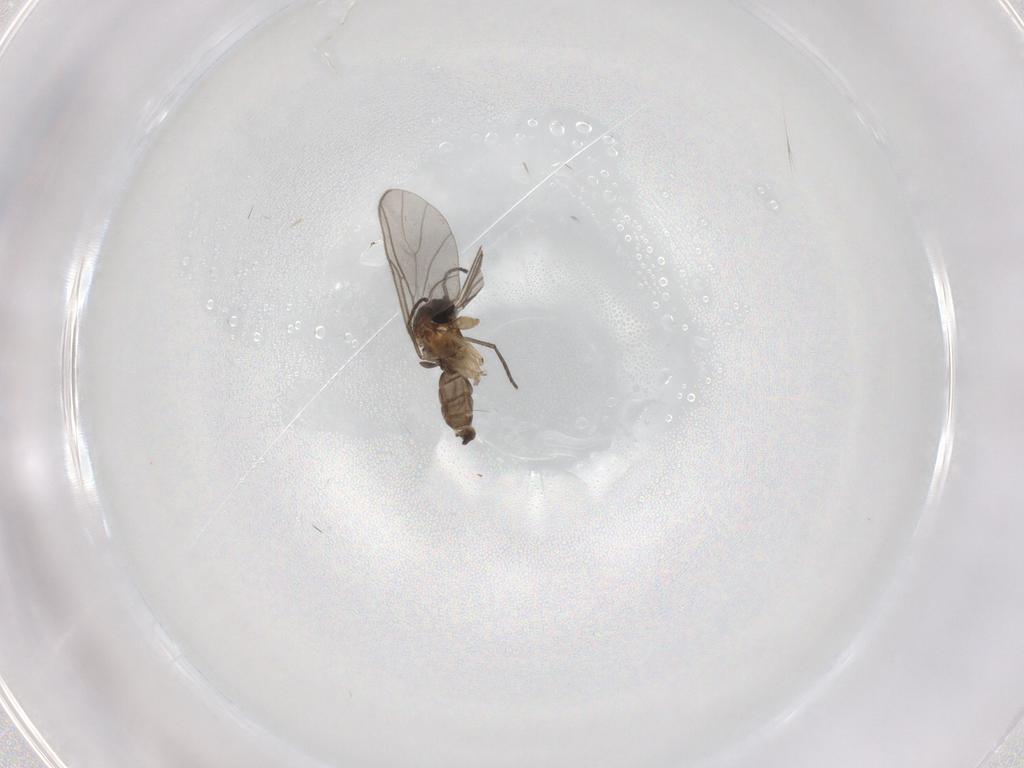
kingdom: Animalia
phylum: Arthropoda
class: Insecta
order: Diptera
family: Sciaridae
